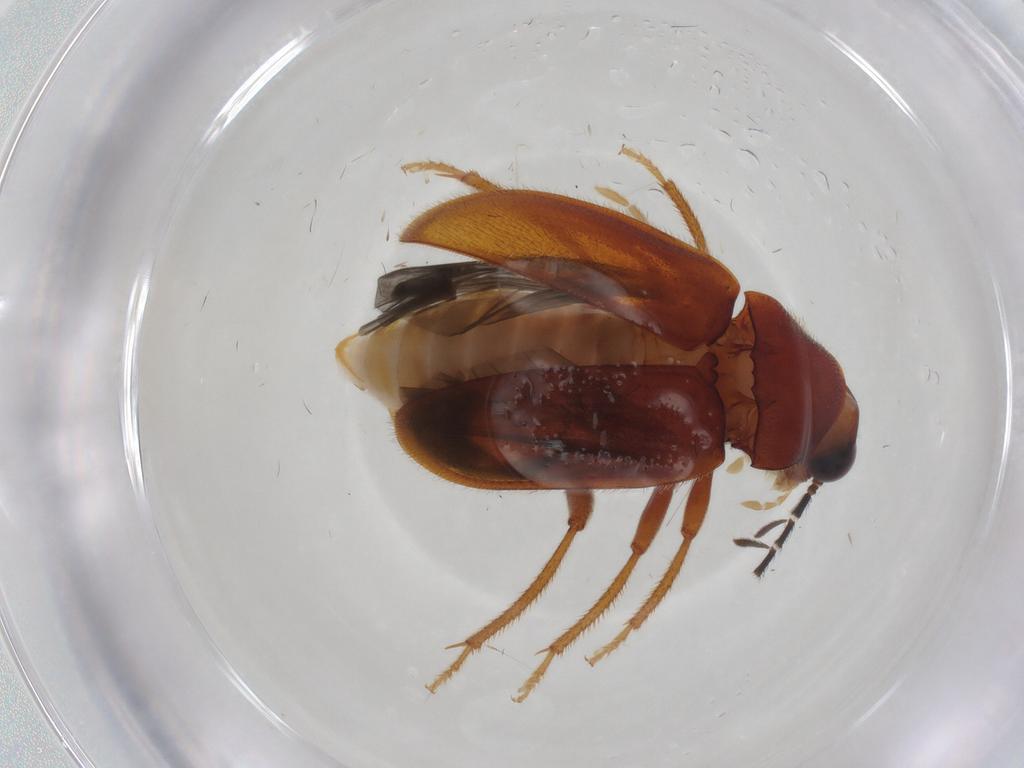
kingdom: Animalia
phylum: Arthropoda
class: Insecta
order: Coleoptera
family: Ptilodactylidae
